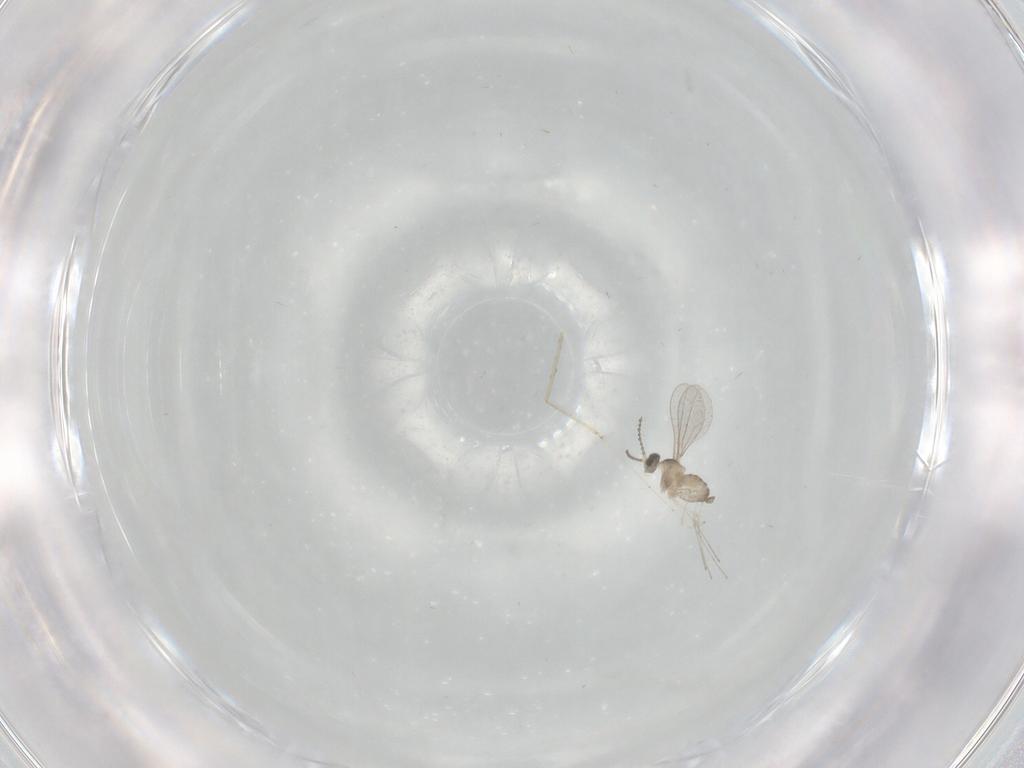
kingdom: Animalia
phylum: Arthropoda
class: Insecta
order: Diptera
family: Cecidomyiidae
